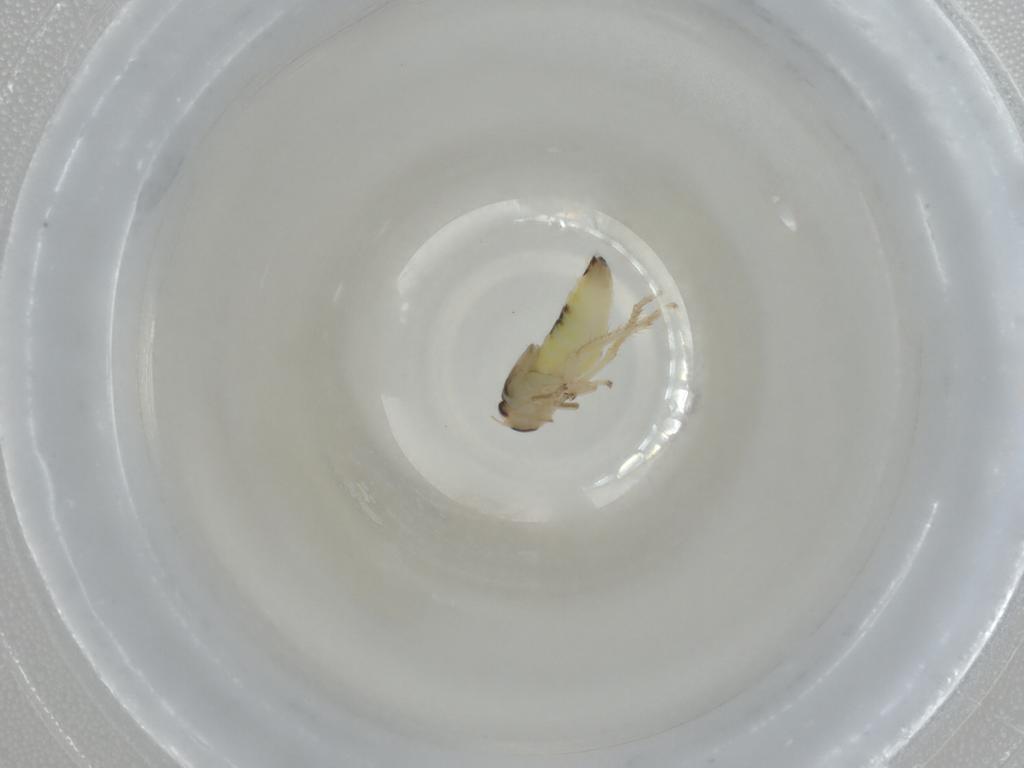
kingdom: Animalia
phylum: Arthropoda
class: Insecta
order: Hemiptera
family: Cicadellidae
